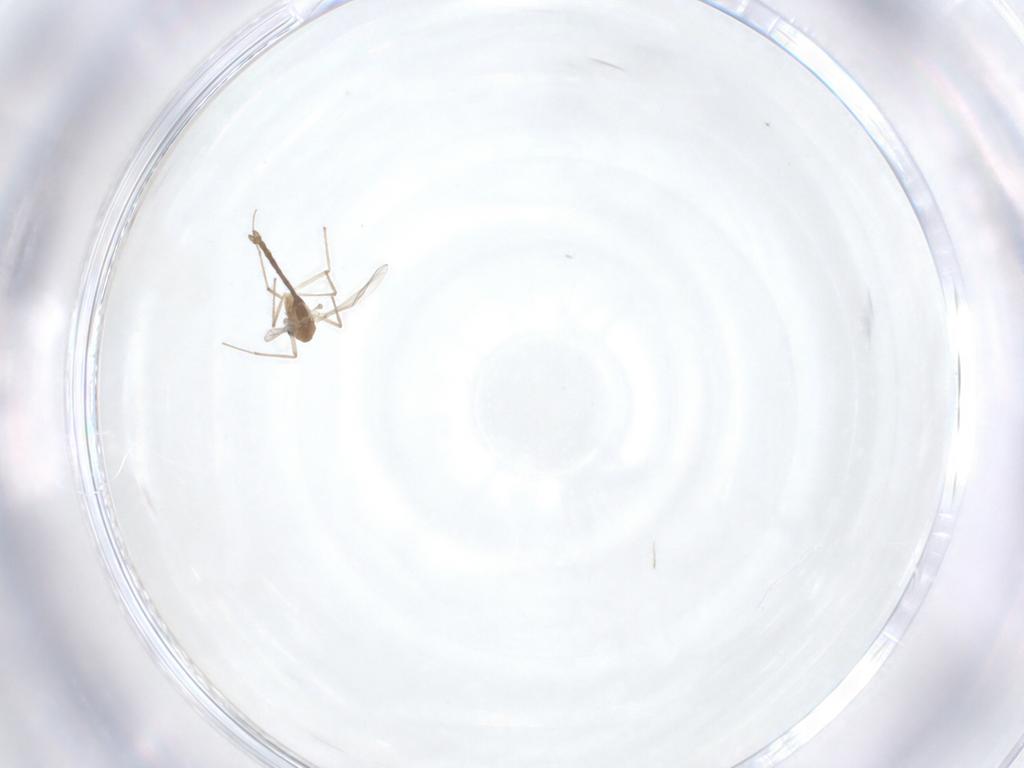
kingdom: Animalia
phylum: Arthropoda
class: Insecta
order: Diptera
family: Chironomidae
